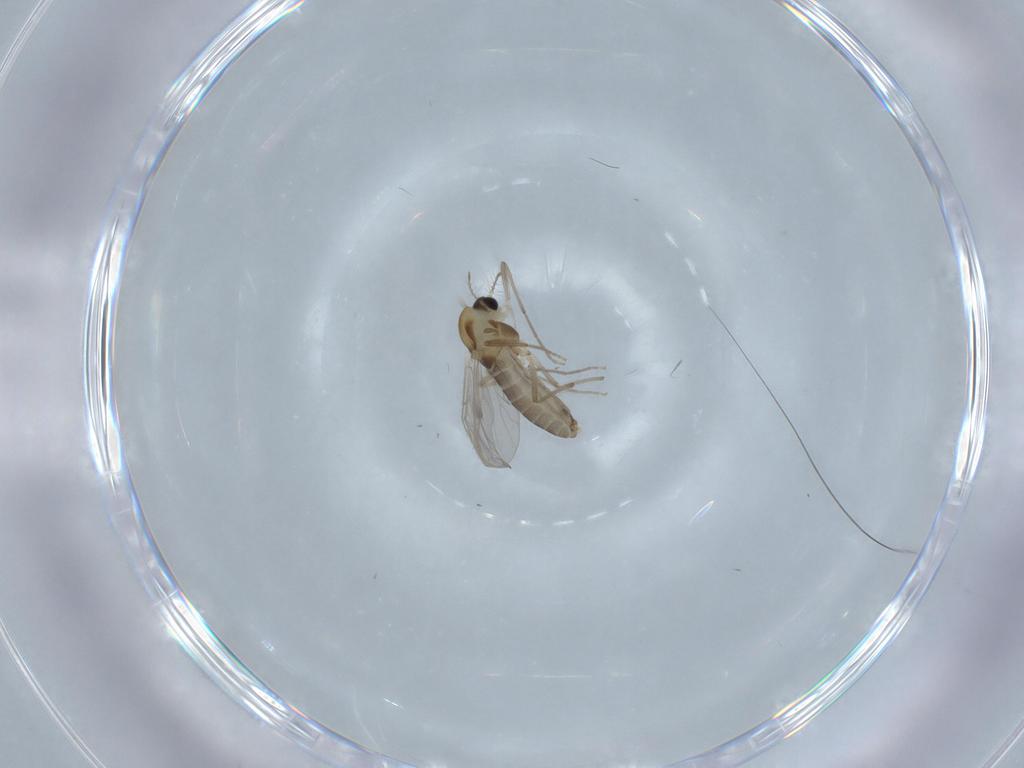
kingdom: Animalia
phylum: Arthropoda
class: Insecta
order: Diptera
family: Chironomidae
